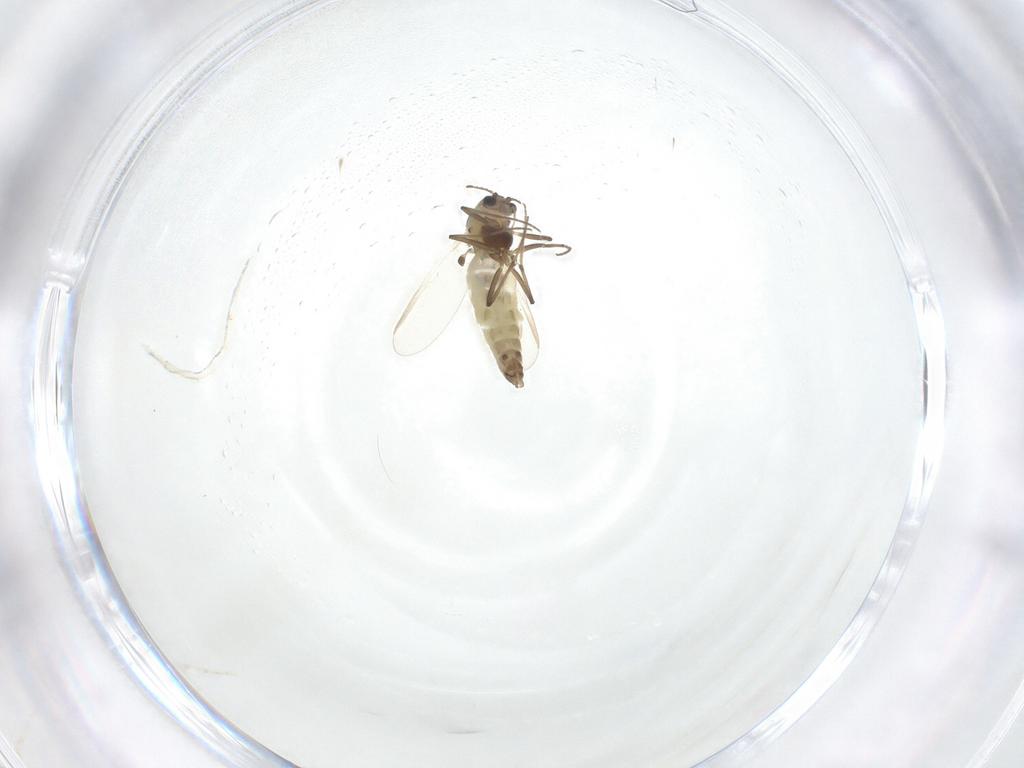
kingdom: Animalia
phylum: Arthropoda
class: Insecta
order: Diptera
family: Chironomidae
